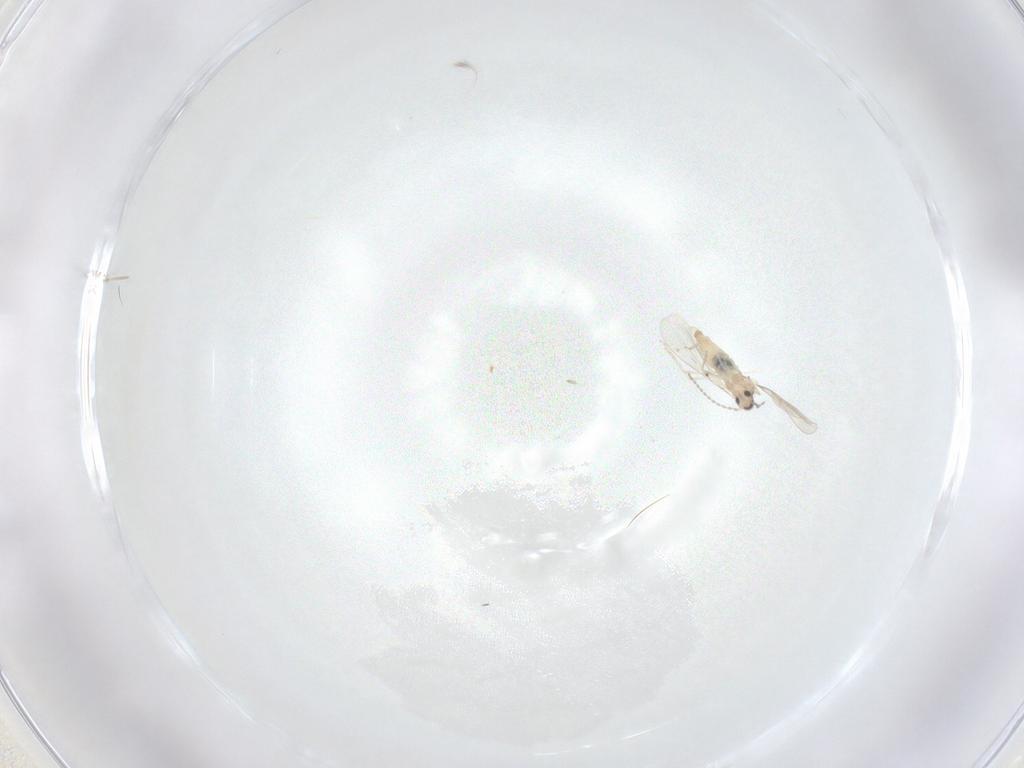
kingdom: Animalia
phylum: Arthropoda
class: Insecta
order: Diptera
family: Cecidomyiidae
